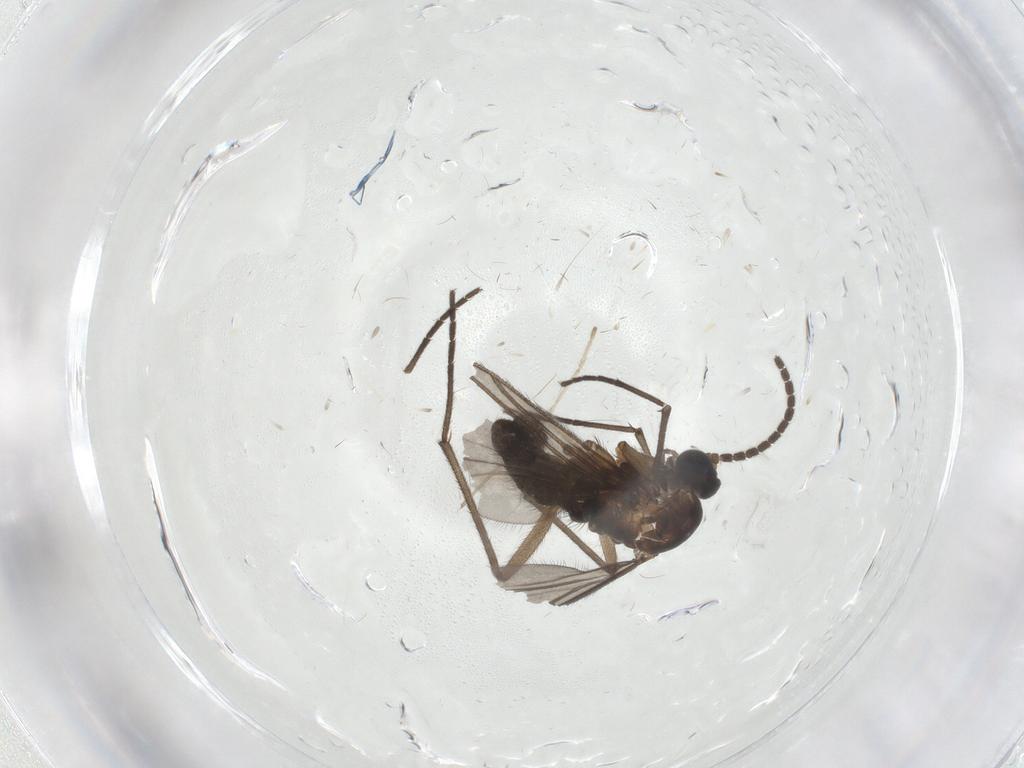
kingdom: Animalia
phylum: Arthropoda
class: Insecta
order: Diptera
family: Sciaridae
